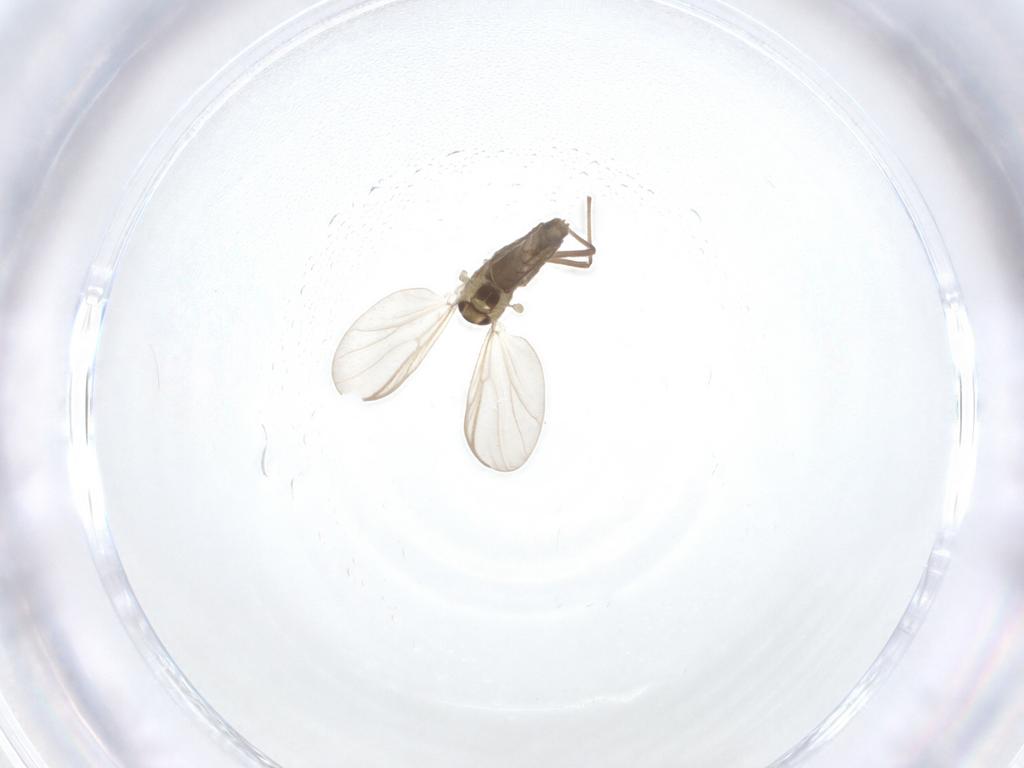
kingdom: Animalia
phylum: Arthropoda
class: Insecta
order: Diptera
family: Chironomidae
